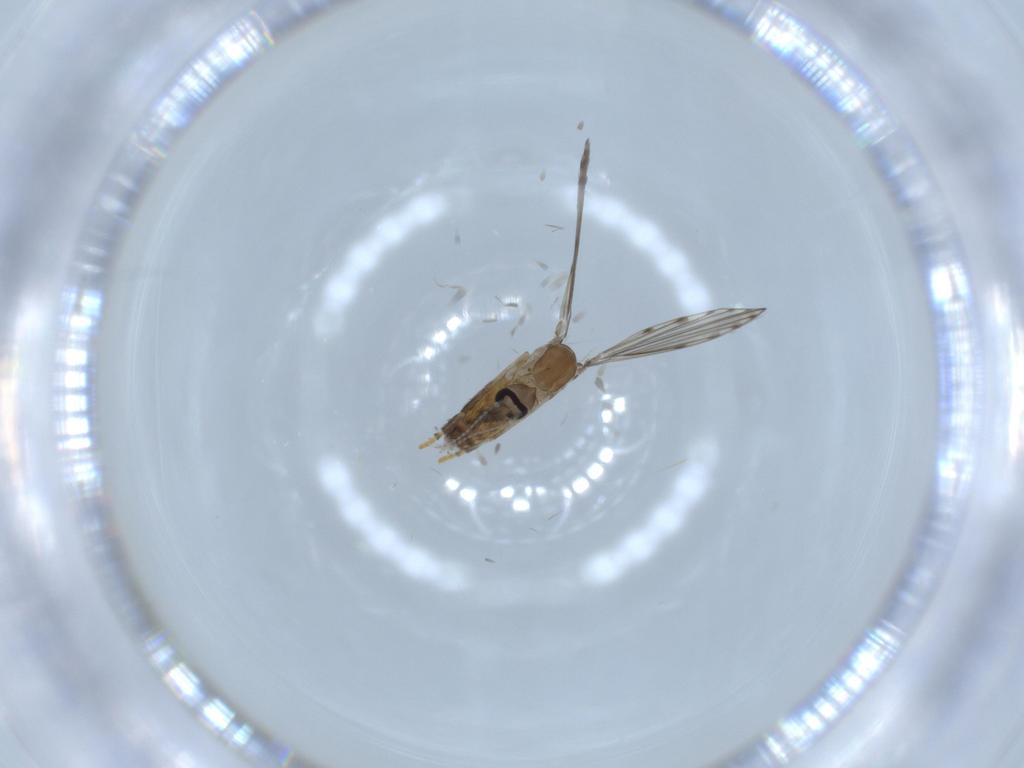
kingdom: Animalia
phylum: Arthropoda
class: Insecta
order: Diptera
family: Psychodidae
